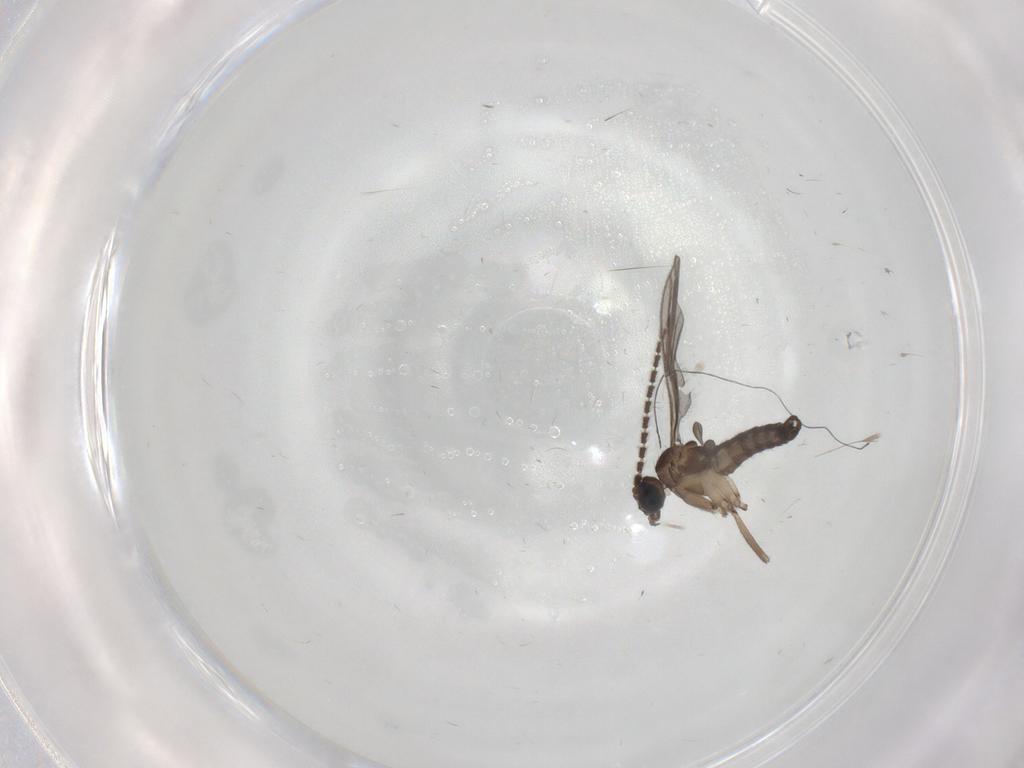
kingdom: Animalia
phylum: Arthropoda
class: Insecta
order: Diptera
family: Sciaridae
